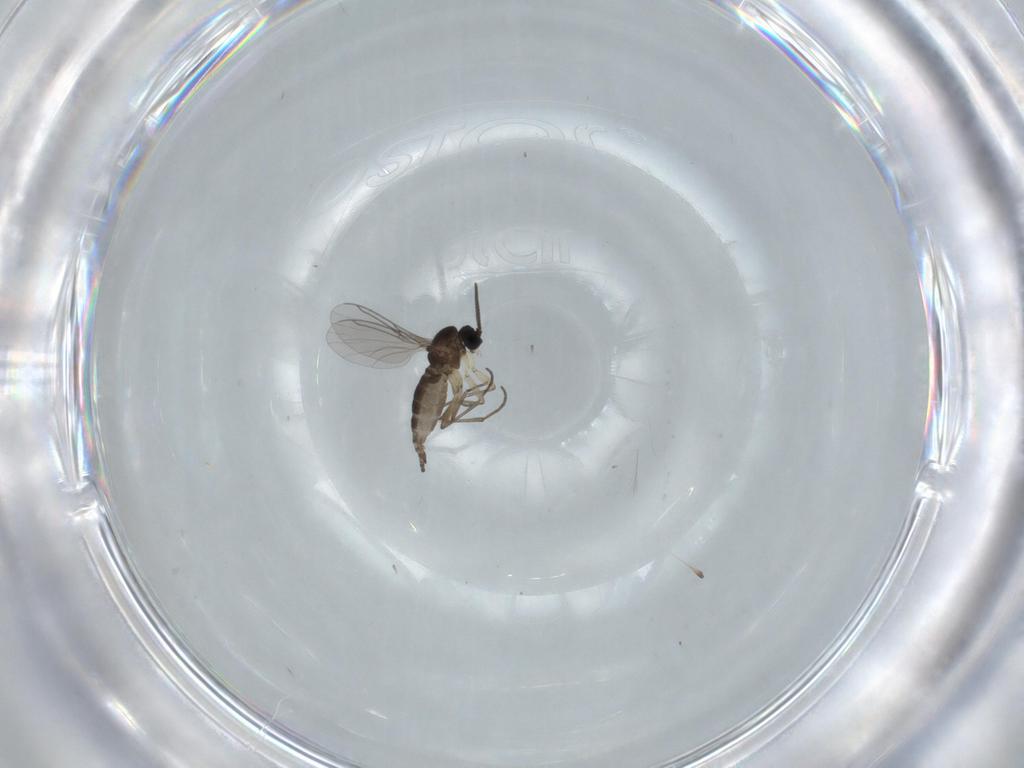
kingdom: Animalia
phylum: Arthropoda
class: Insecta
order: Diptera
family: Sciaridae
